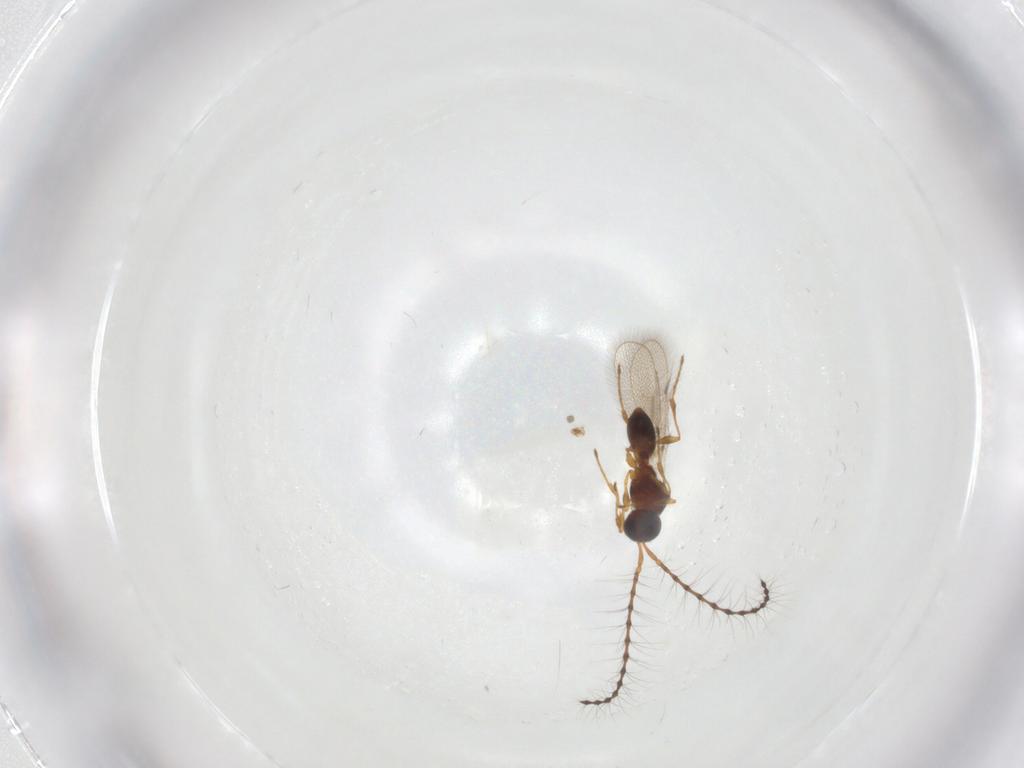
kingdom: Animalia
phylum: Arthropoda
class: Insecta
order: Hymenoptera
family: Diapriidae
